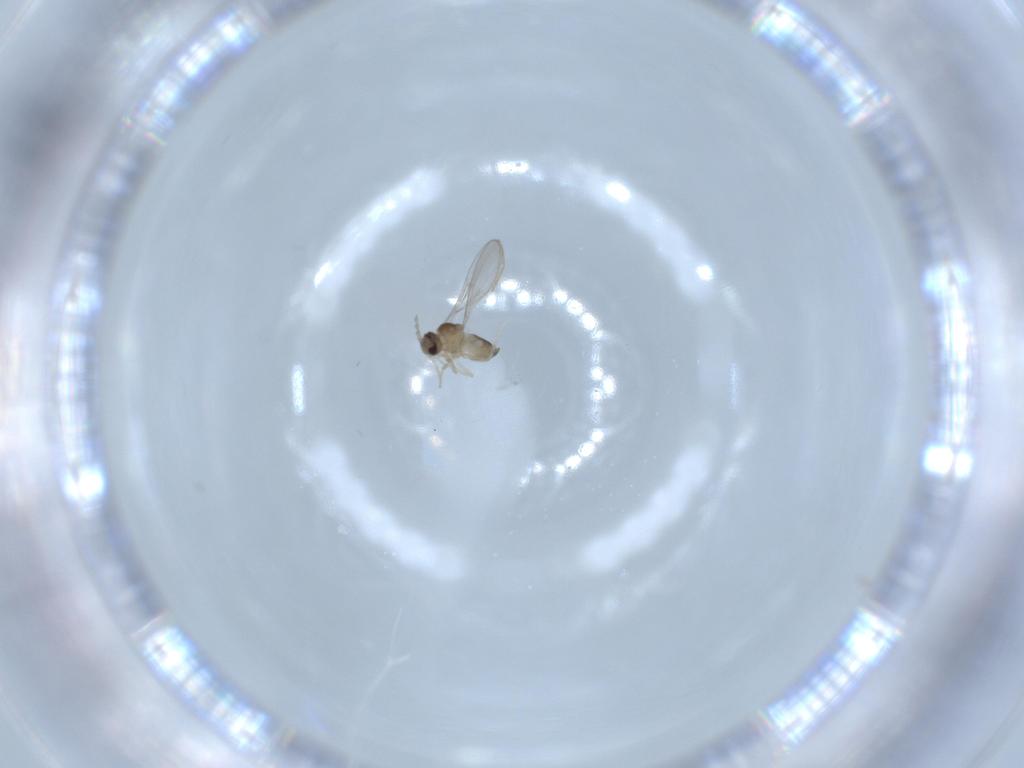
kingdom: Animalia
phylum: Arthropoda
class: Insecta
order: Diptera
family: Cecidomyiidae
